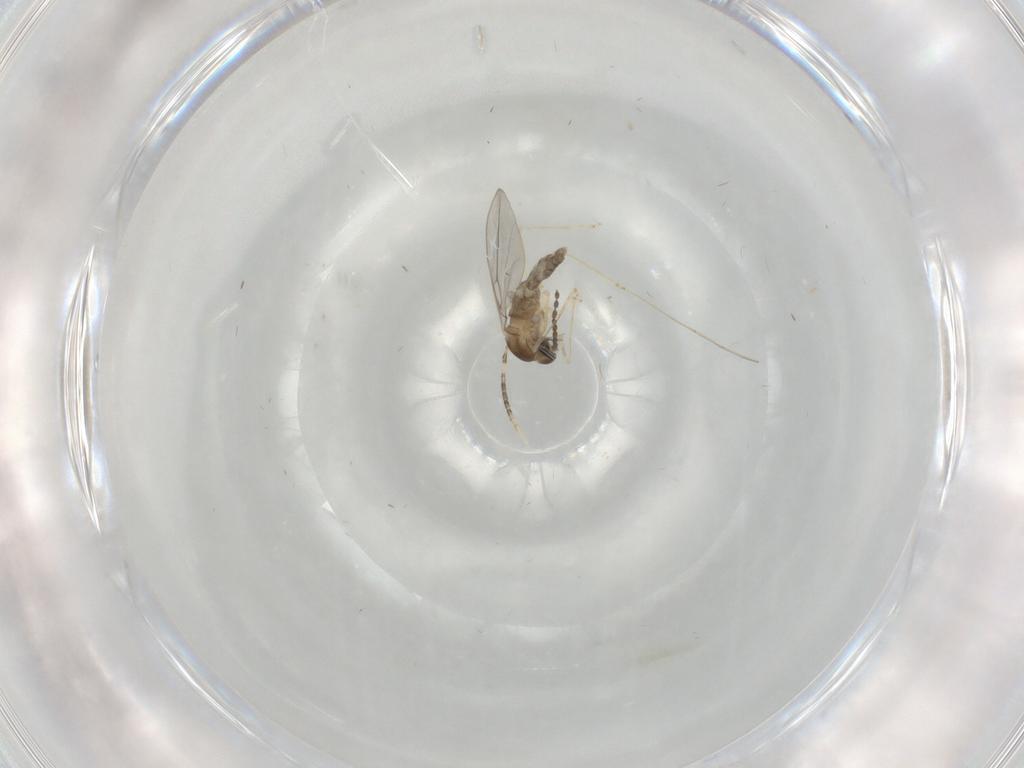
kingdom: Animalia
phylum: Arthropoda
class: Insecta
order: Diptera
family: Cecidomyiidae
